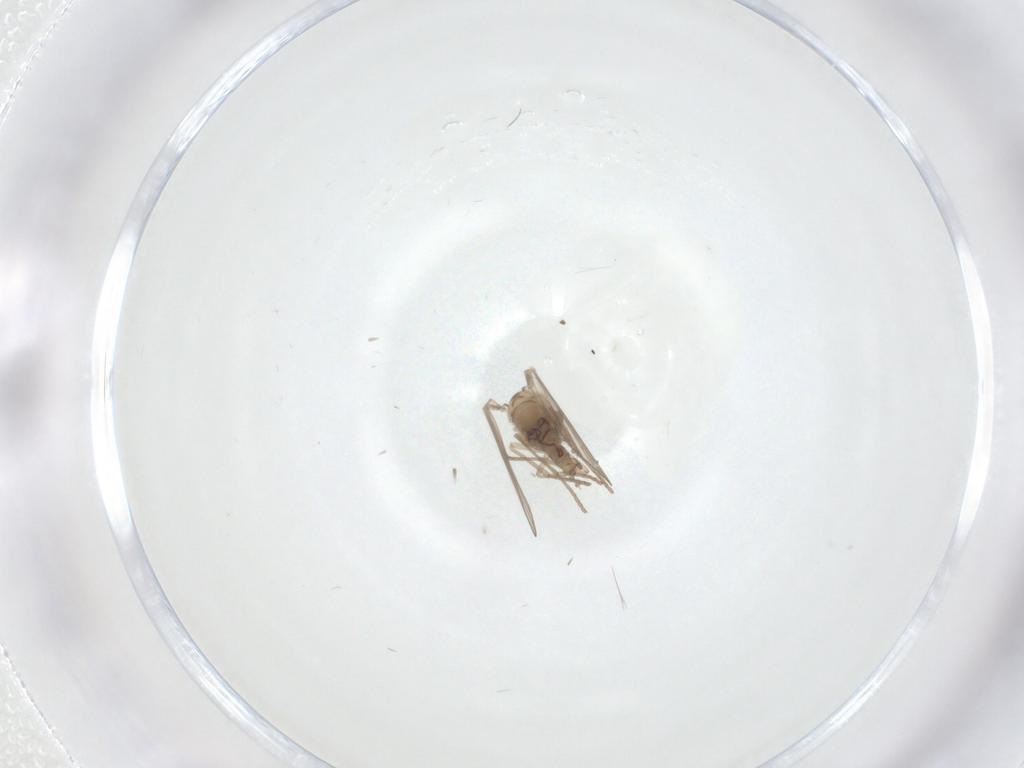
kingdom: Animalia
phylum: Arthropoda
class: Insecta
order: Diptera
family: Psychodidae
